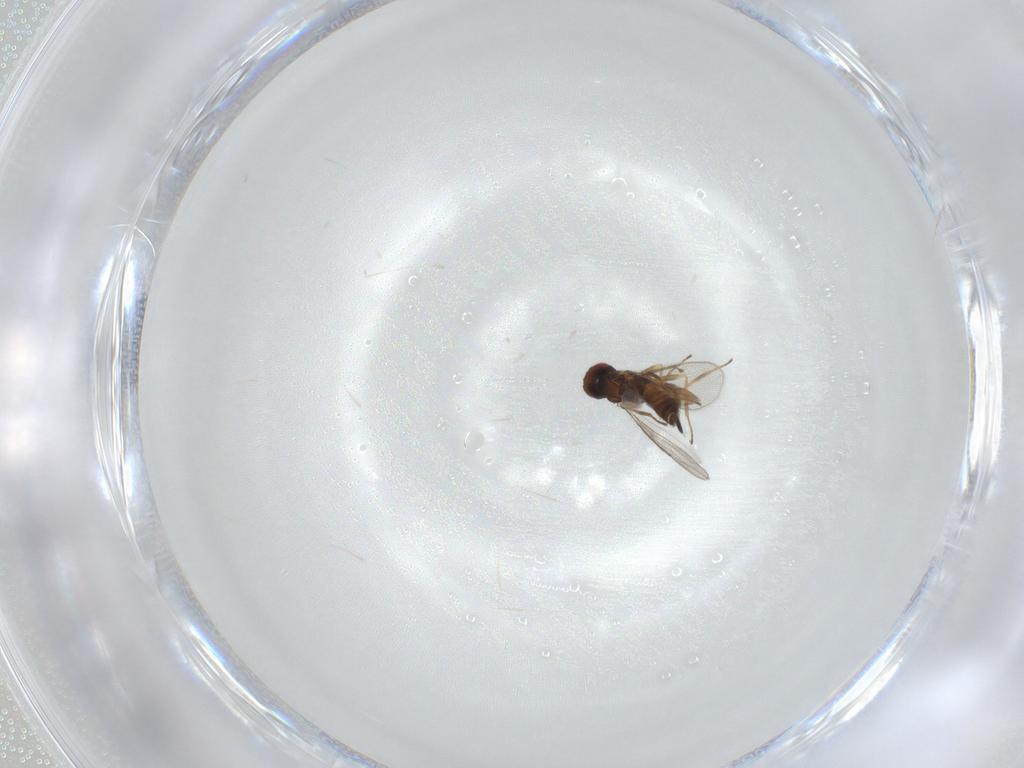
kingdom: Animalia
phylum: Arthropoda
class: Insecta
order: Hymenoptera
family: Eulophidae
